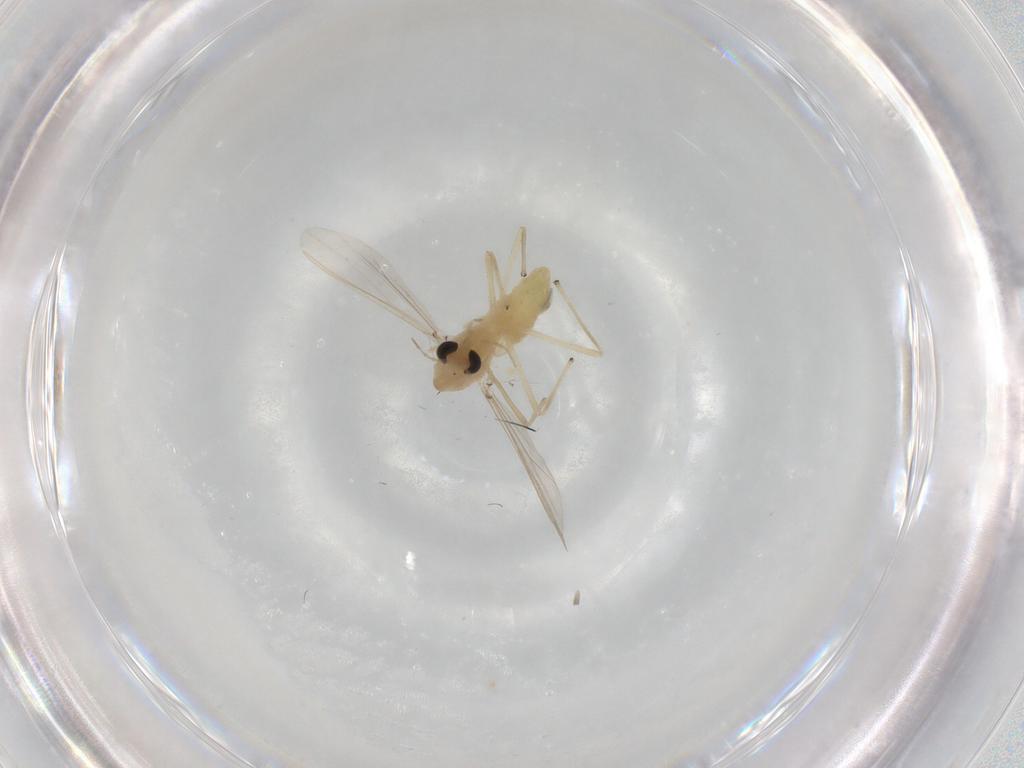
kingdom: Animalia
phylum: Arthropoda
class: Insecta
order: Diptera
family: Chironomidae
